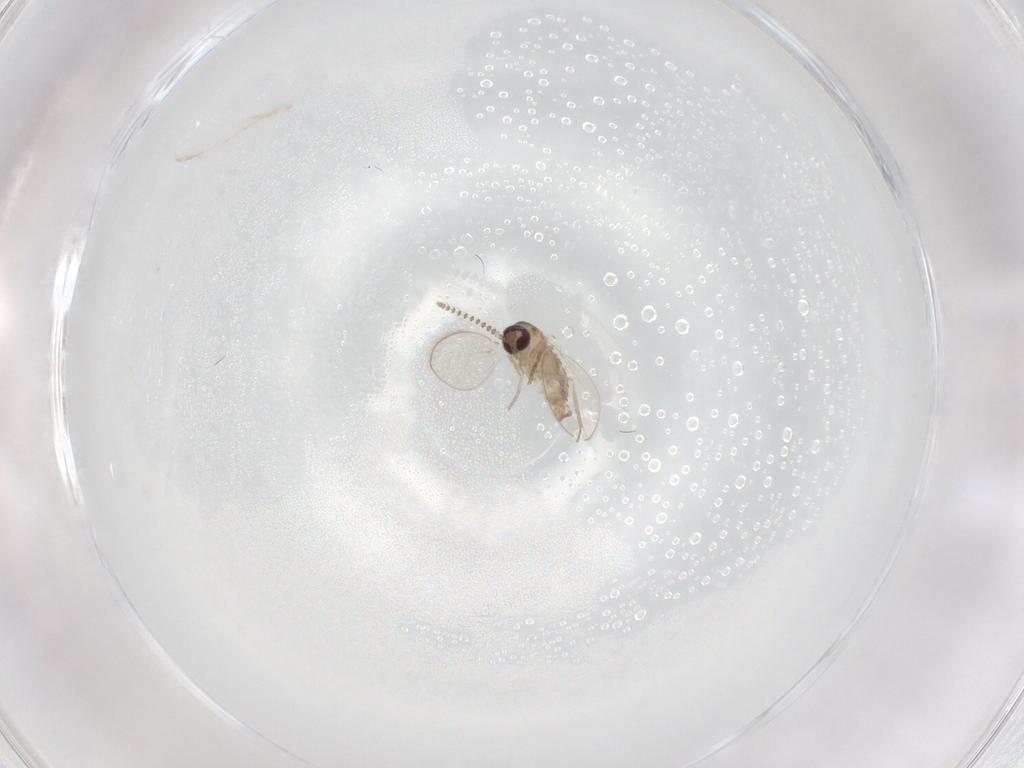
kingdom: Animalia
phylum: Arthropoda
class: Insecta
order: Diptera
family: Psychodidae
